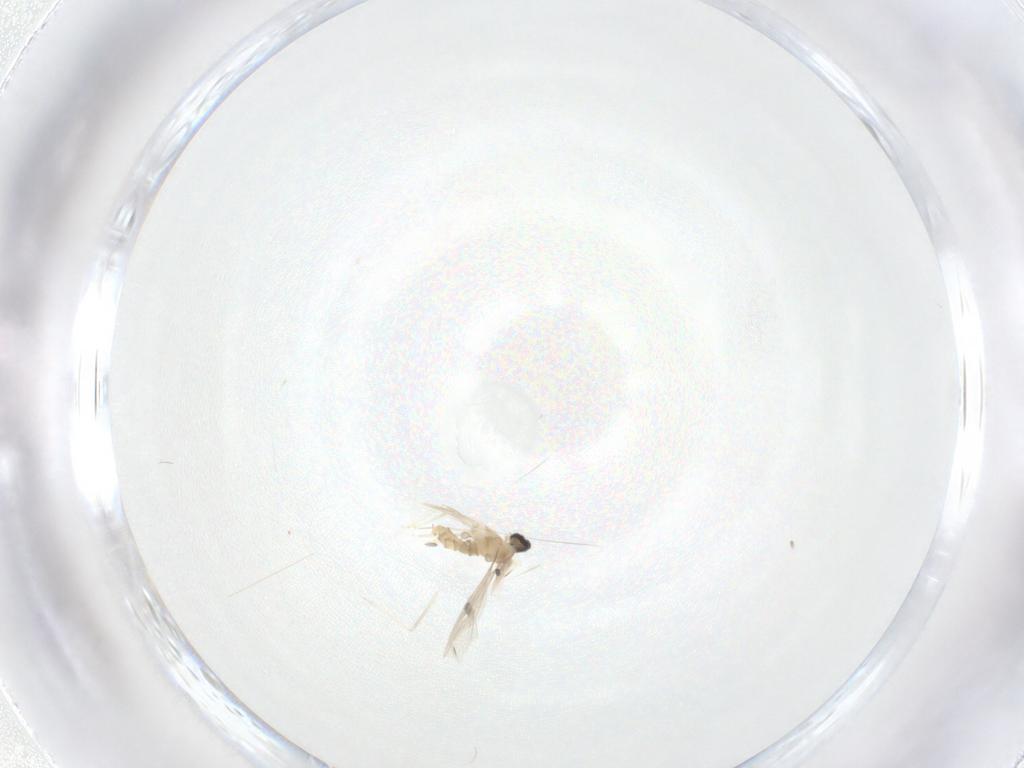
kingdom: Animalia
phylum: Arthropoda
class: Insecta
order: Diptera
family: Cecidomyiidae
